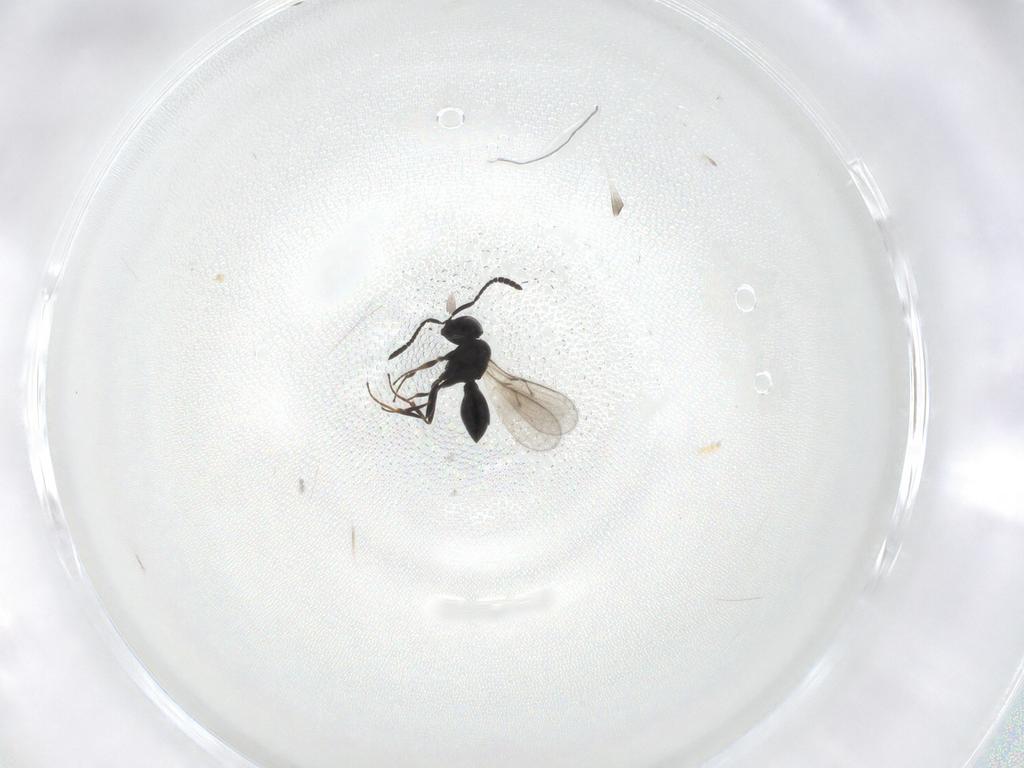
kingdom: Animalia
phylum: Arthropoda
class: Insecta
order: Hymenoptera
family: Scelionidae
